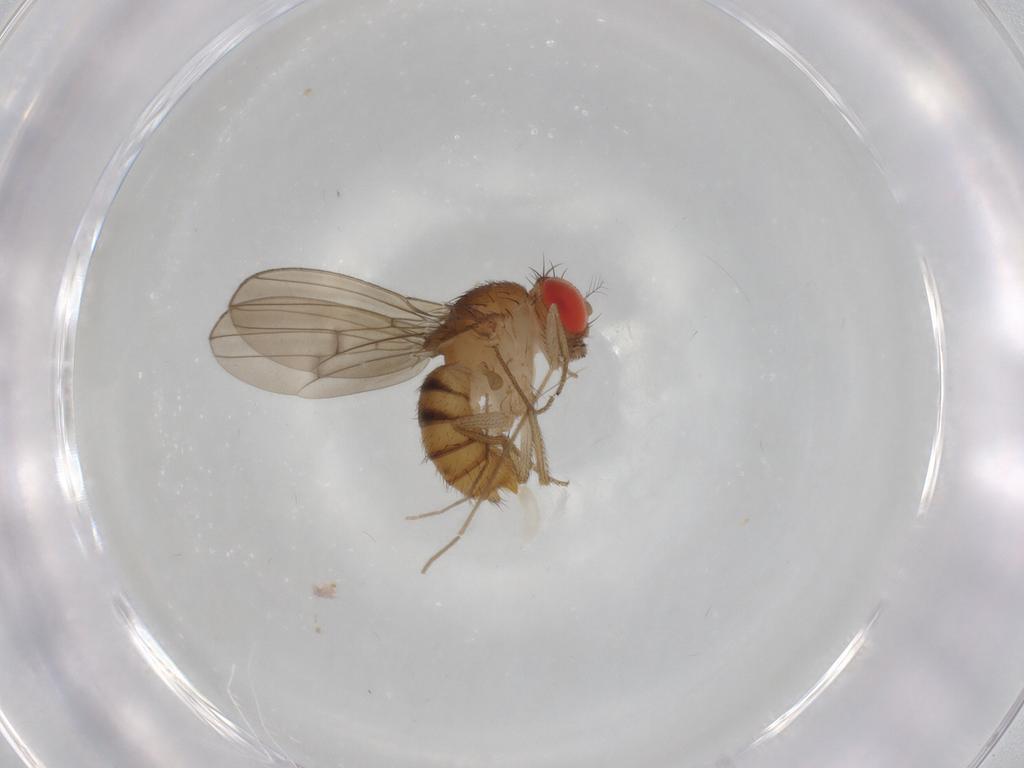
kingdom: Animalia
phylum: Arthropoda
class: Insecta
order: Diptera
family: Drosophilidae
